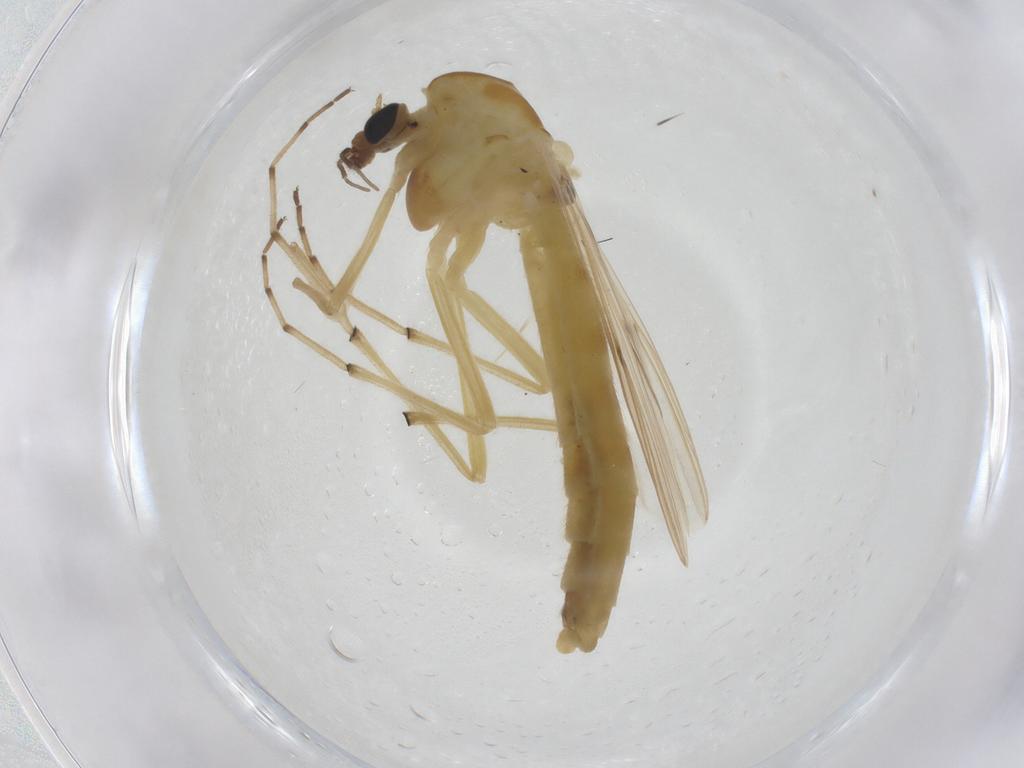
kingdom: Animalia
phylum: Arthropoda
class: Insecta
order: Diptera
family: Chironomidae
